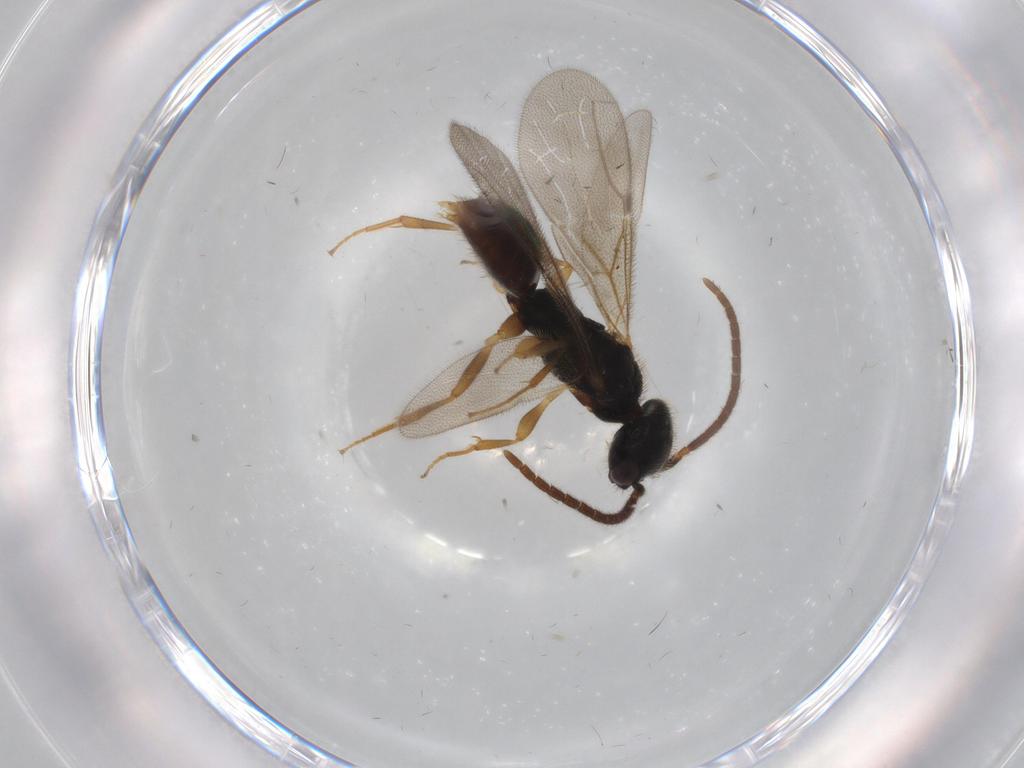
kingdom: Animalia
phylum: Arthropoda
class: Insecta
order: Hymenoptera
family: Bethylidae
